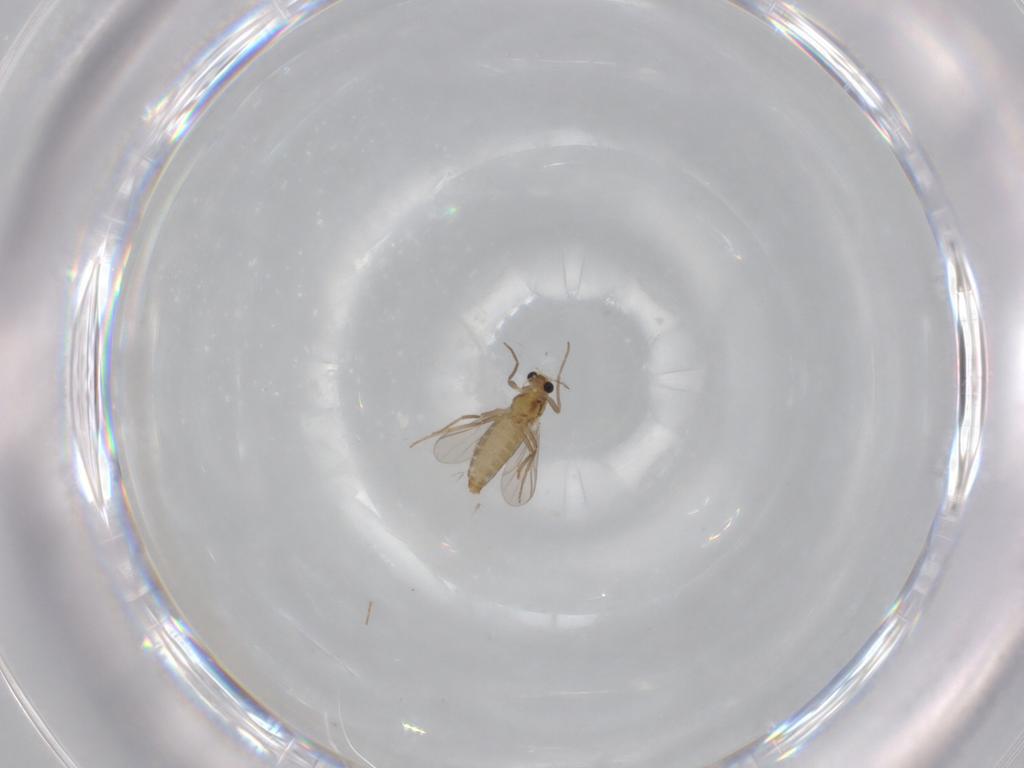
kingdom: Animalia
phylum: Arthropoda
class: Insecta
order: Diptera
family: Chironomidae
